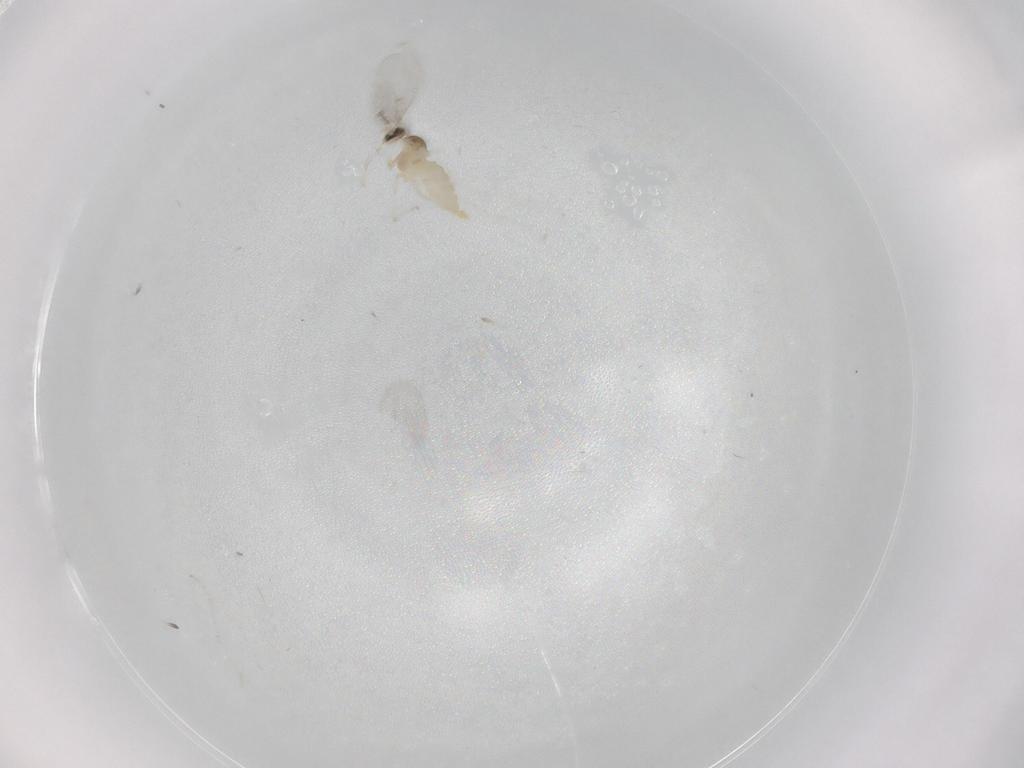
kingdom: Animalia
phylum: Arthropoda
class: Insecta
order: Diptera
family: Cecidomyiidae
